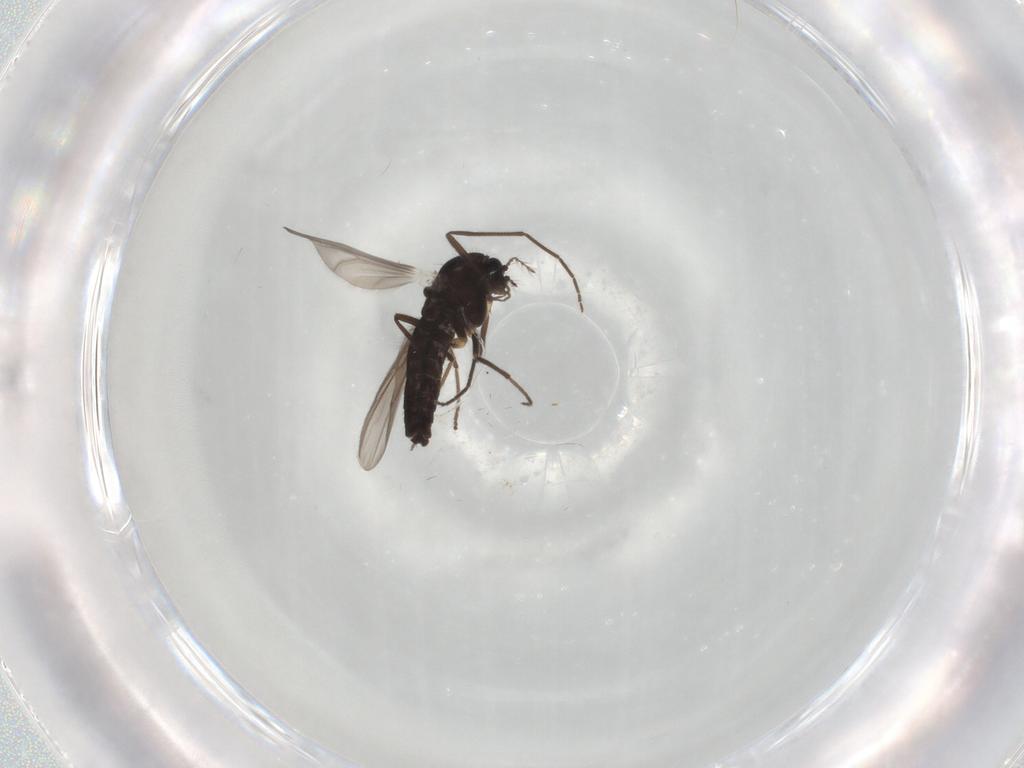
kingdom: Animalia
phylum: Arthropoda
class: Insecta
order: Diptera
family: Chironomidae
